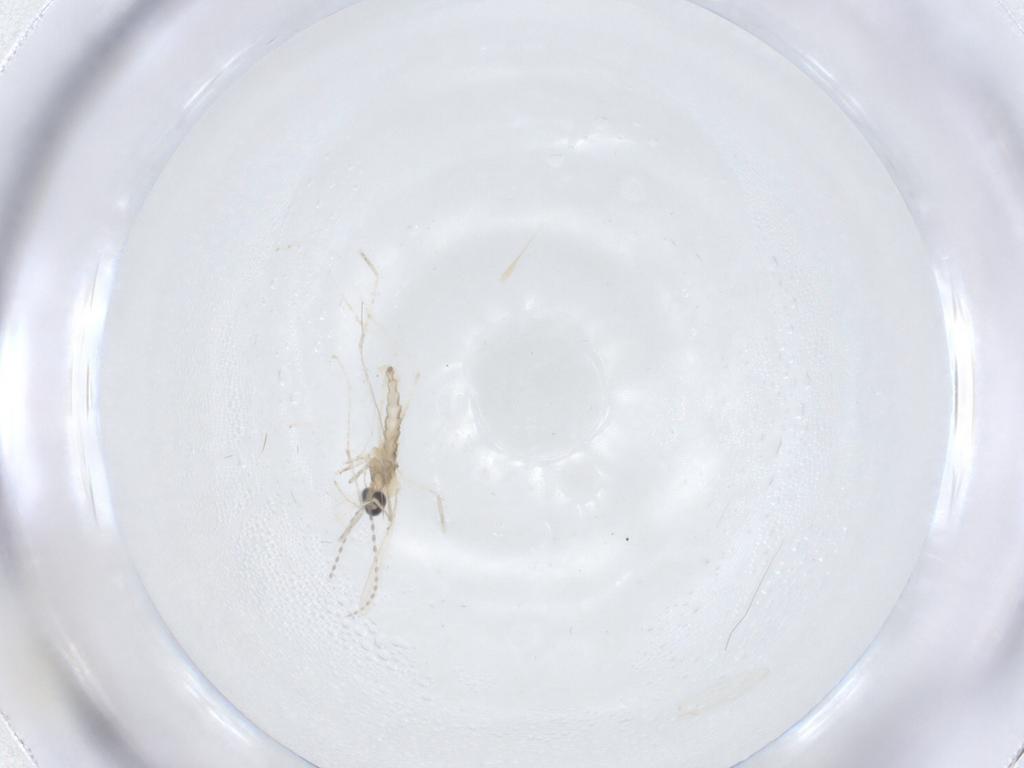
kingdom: Animalia
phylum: Arthropoda
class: Insecta
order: Diptera
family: Cecidomyiidae
